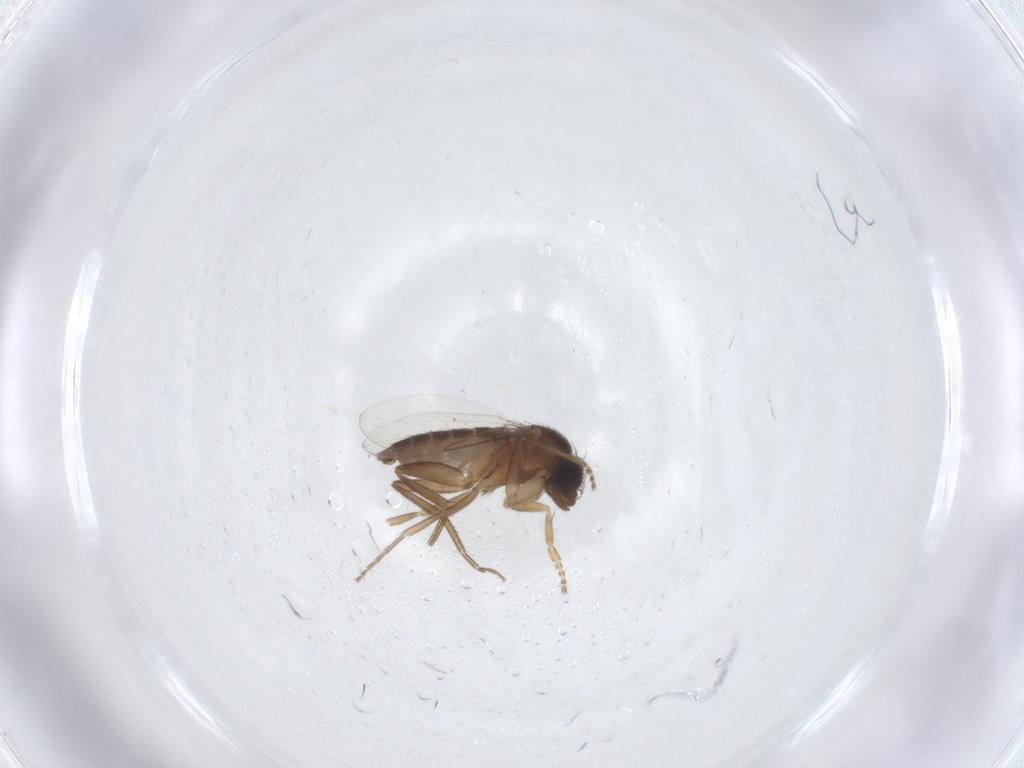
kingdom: Animalia
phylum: Arthropoda
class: Insecta
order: Diptera
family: Phoridae
